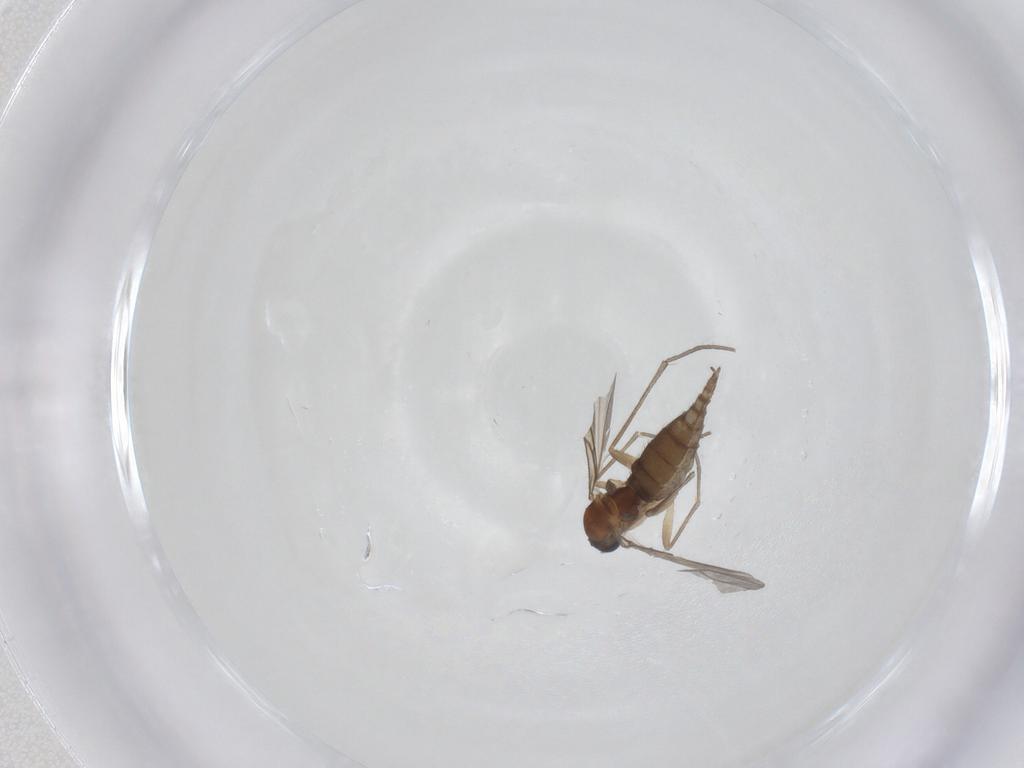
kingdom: Animalia
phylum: Arthropoda
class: Insecta
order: Diptera
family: Sciaridae
